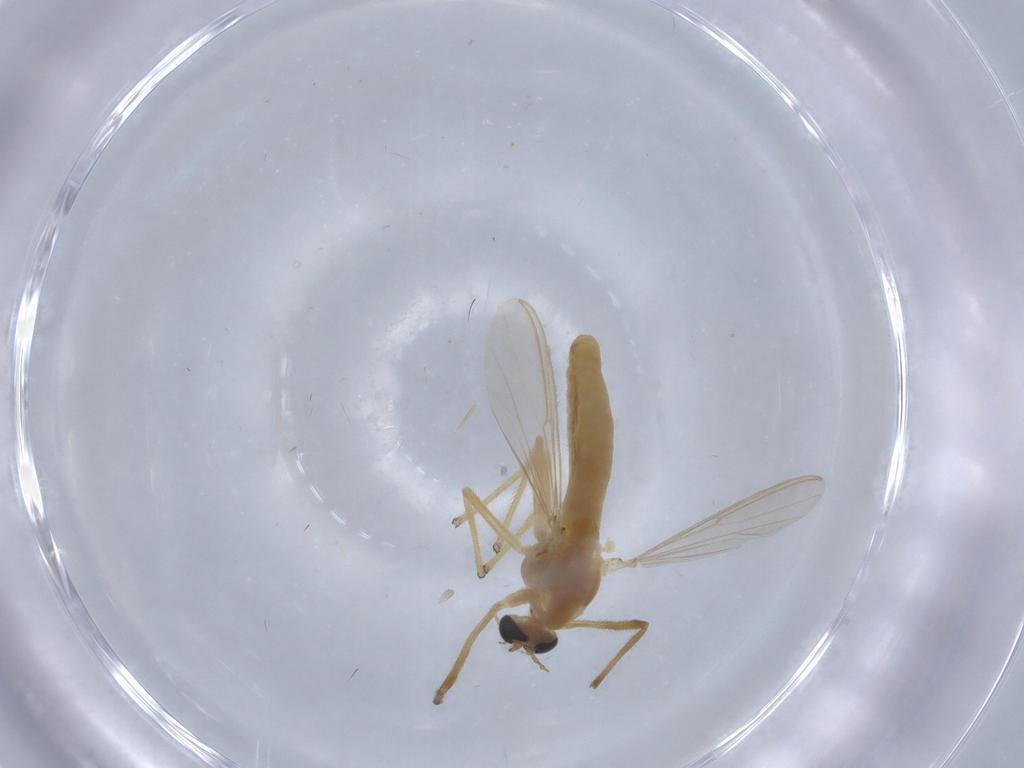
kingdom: Animalia
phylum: Arthropoda
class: Insecta
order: Diptera
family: Chironomidae
